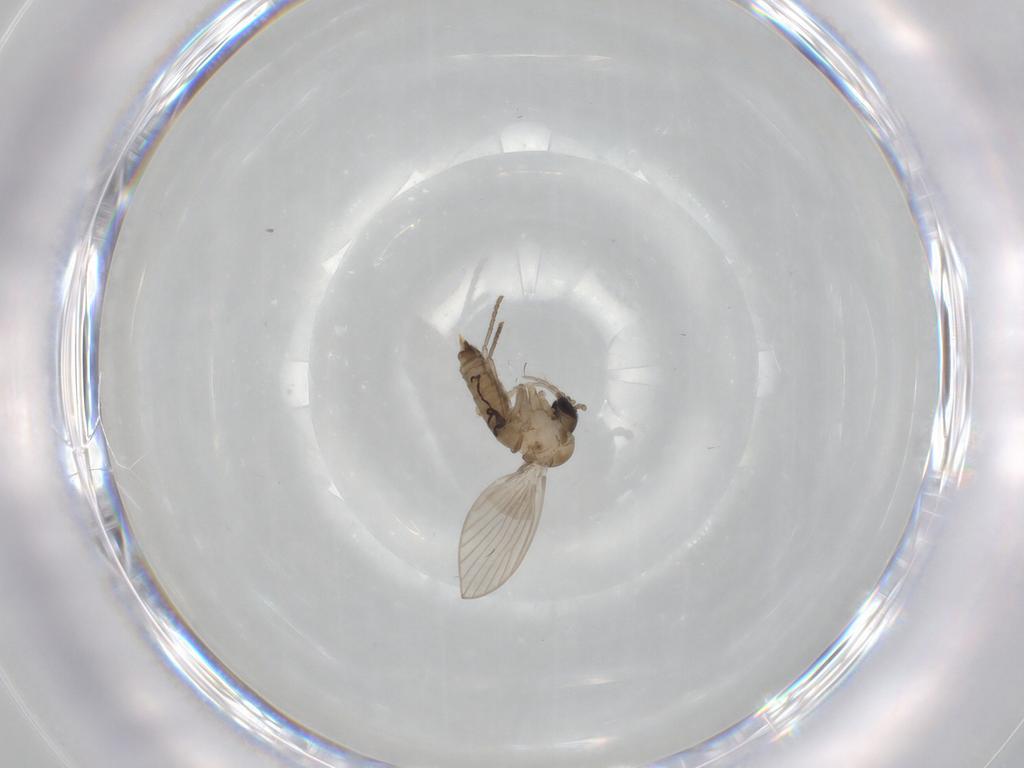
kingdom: Animalia
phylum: Arthropoda
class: Insecta
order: Diptera
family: Psychodidae
